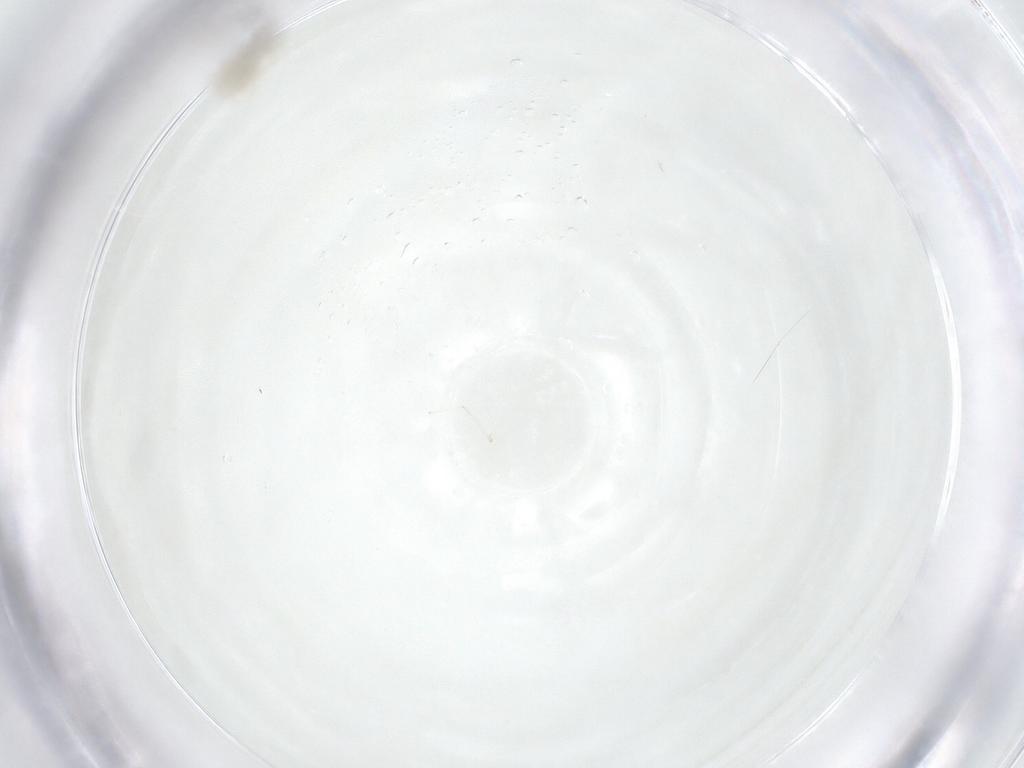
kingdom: Animalia
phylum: Arthropoda
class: Insecta
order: Diptera
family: Cecidomyiidae
